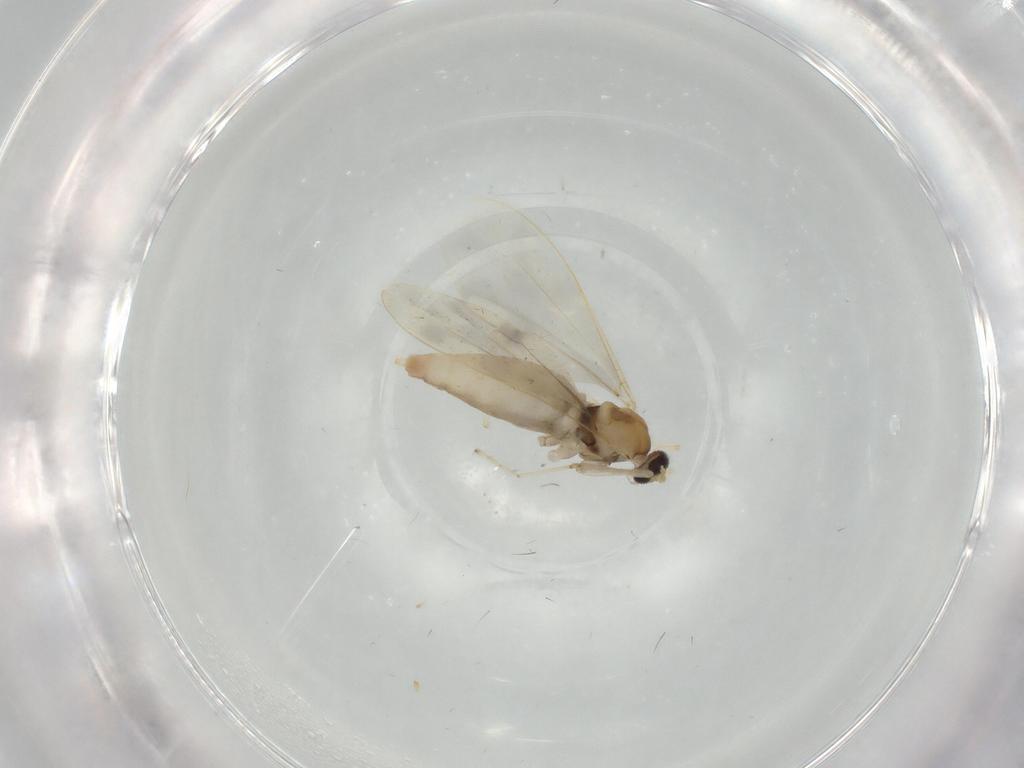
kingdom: Animalia
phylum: Arthropoda
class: Insecta
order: Diptera
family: Cecidomyiidae
